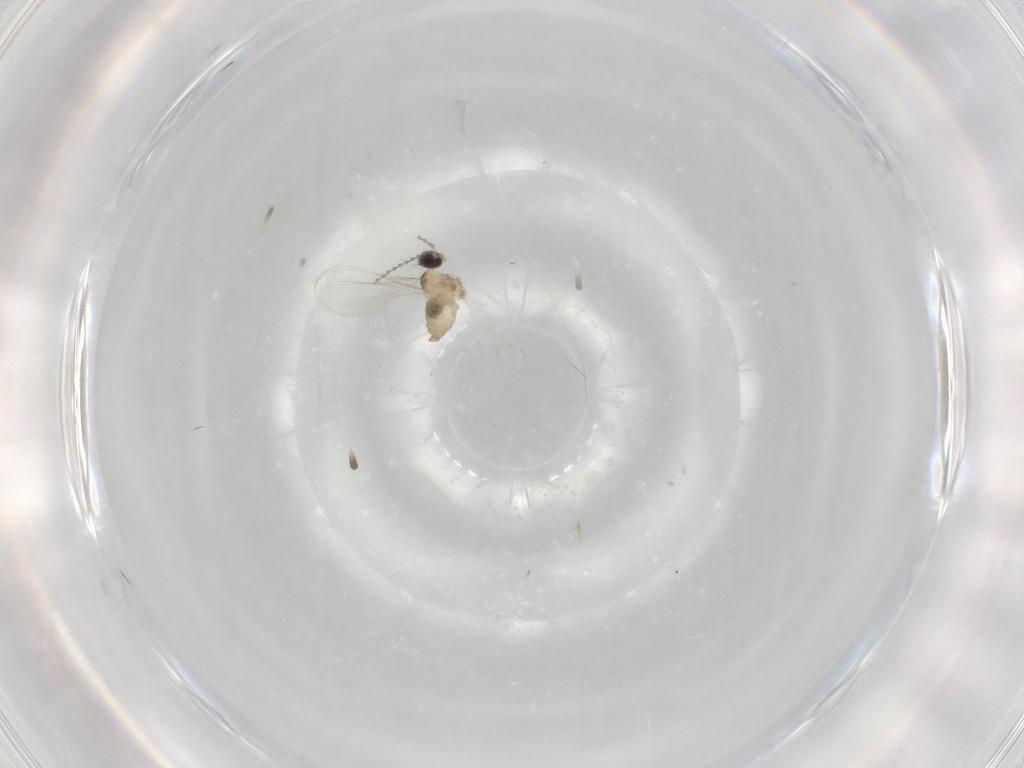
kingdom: Animalia
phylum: Arthropoda
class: Insecta
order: Diptera
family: Cecidomyiidae
